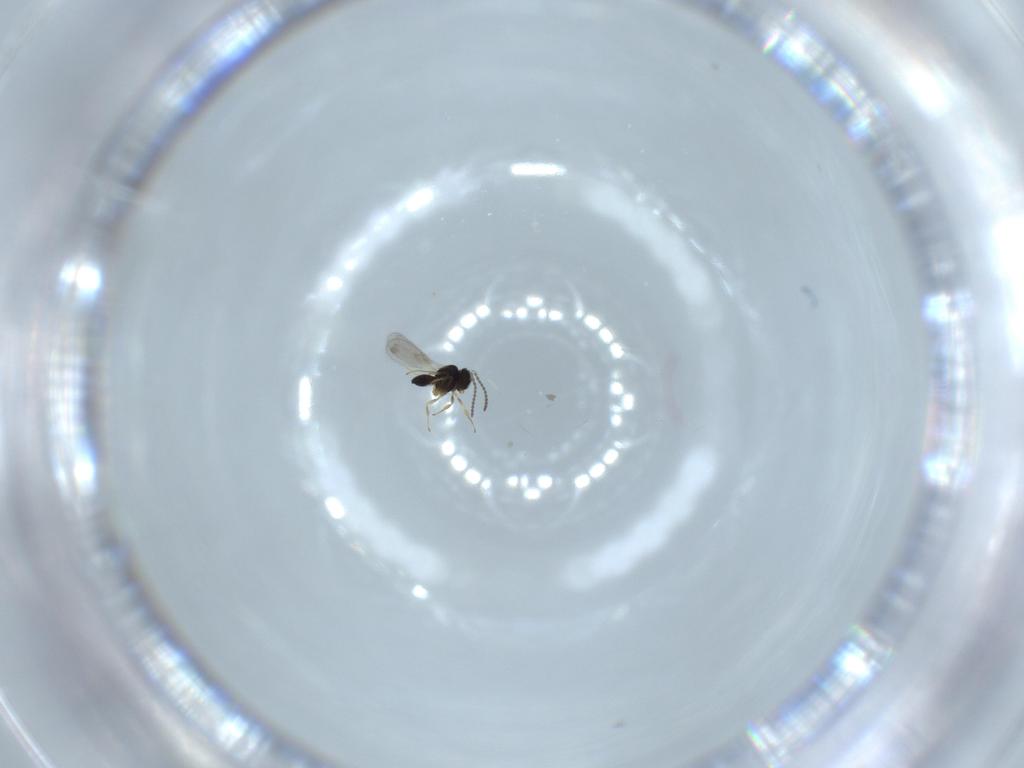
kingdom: Animalia
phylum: Arthropoda
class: Insecta
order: Hymenoptera
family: Scelionidae
